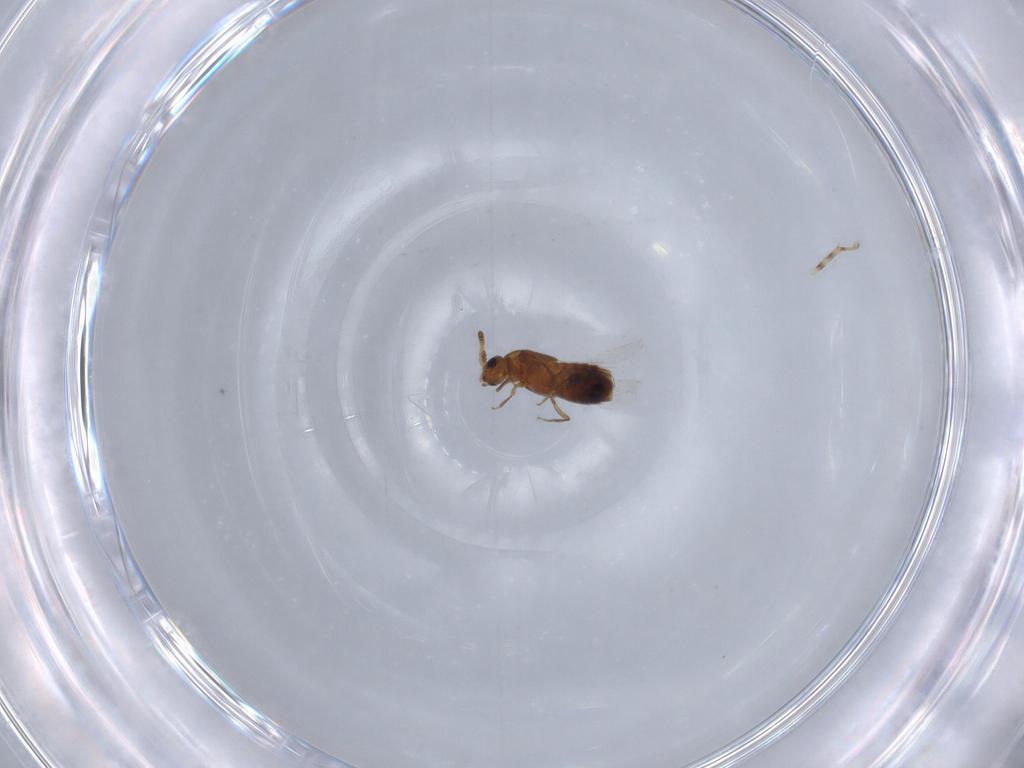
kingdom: Animalia
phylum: Arthropoda
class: Insecta
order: Coleoptera
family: Staphylinidae
